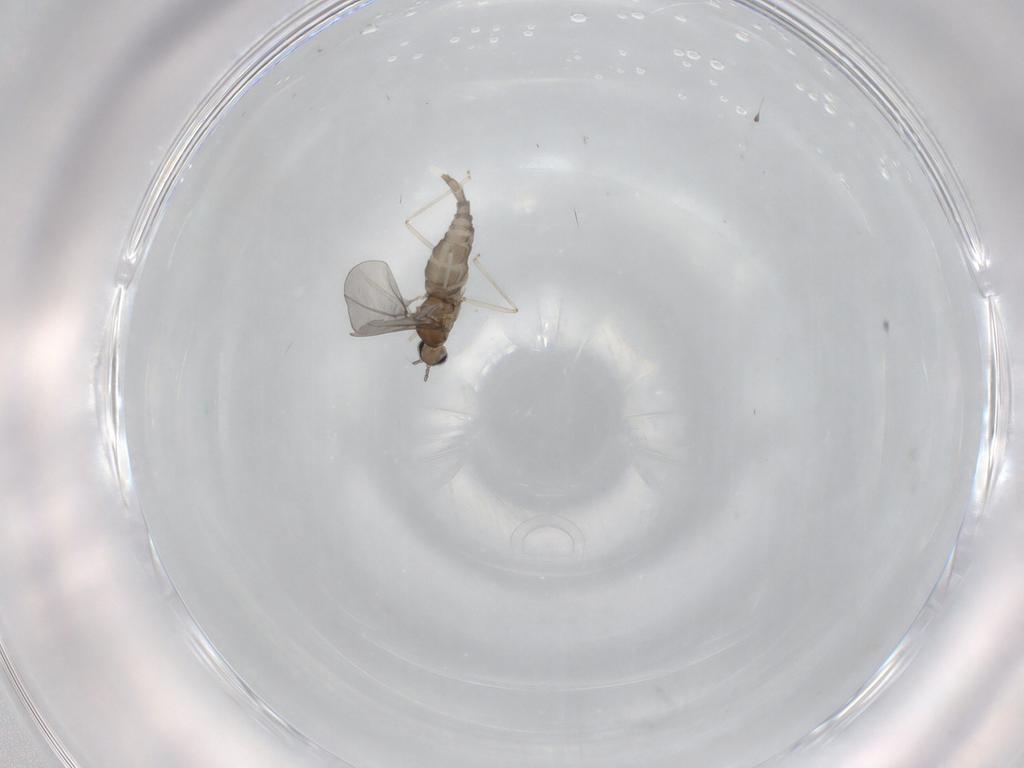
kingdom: Animalia
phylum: Arthropoda
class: Insecta
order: Diptera
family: Cecidomyiidae
